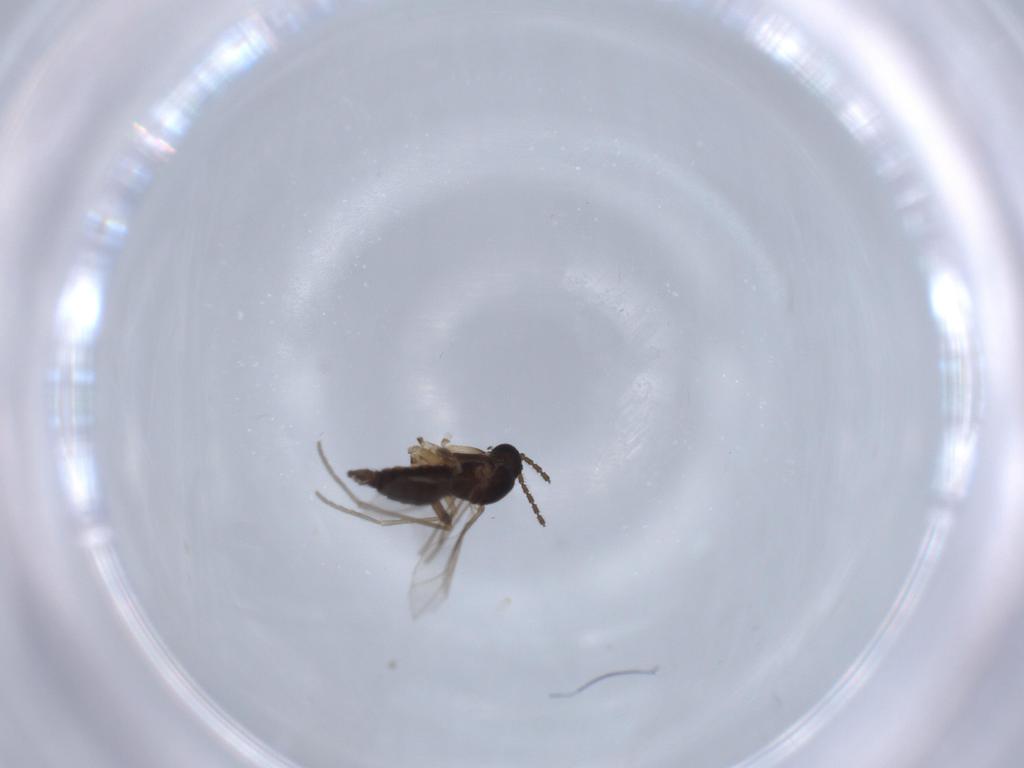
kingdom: Animalia
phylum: Arthropoda
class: Insecta
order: Diptera
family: Sciaridae
